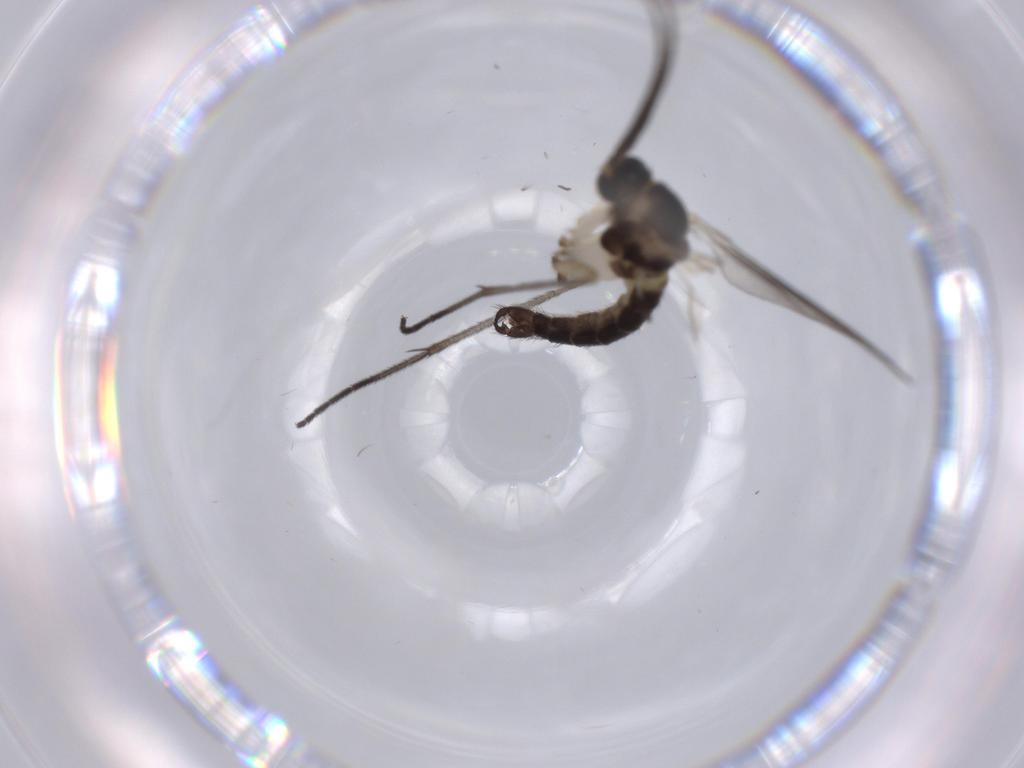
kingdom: Animalia
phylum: Arthropoda
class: Insecta
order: Diptera
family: Sciaridae
